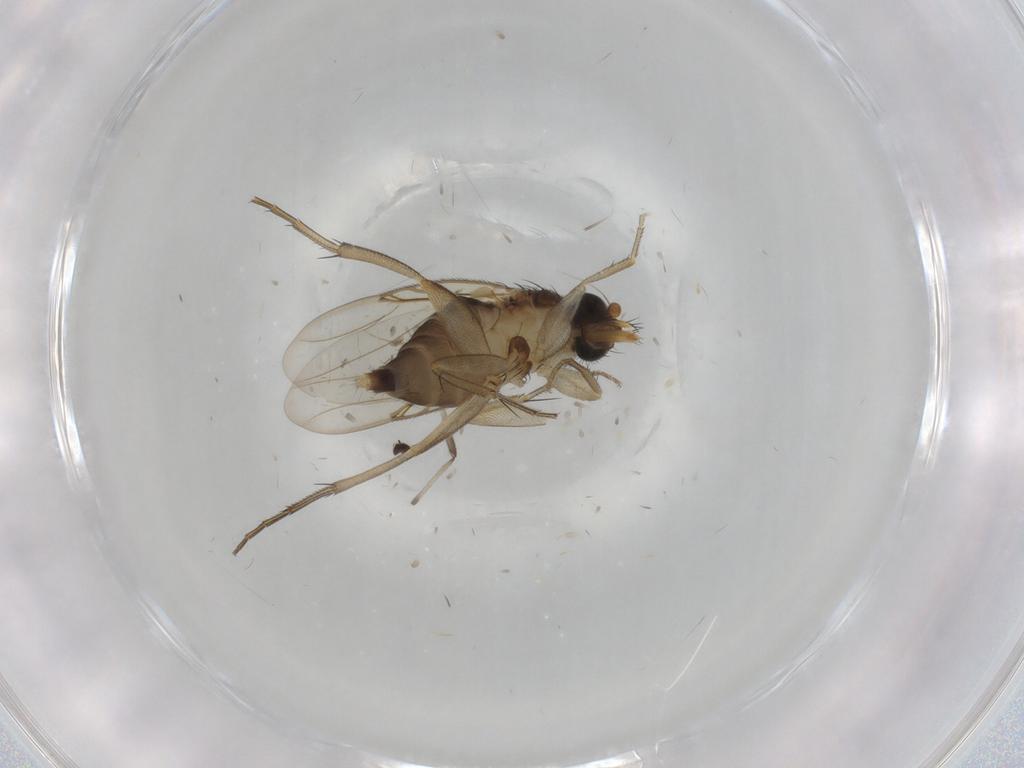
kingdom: Animalia
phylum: Arthropoda
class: Insecta
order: Diptera
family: Phoridae
